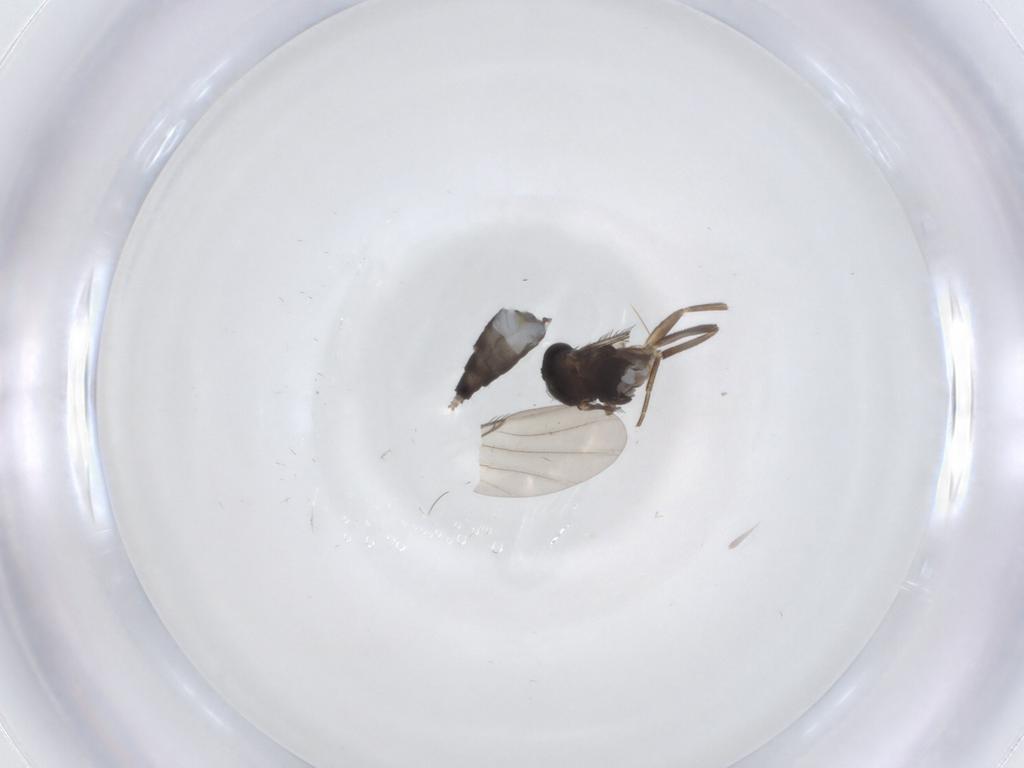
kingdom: Animalia
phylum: Arthropoda
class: Insecta
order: Diptera
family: Phoridae
